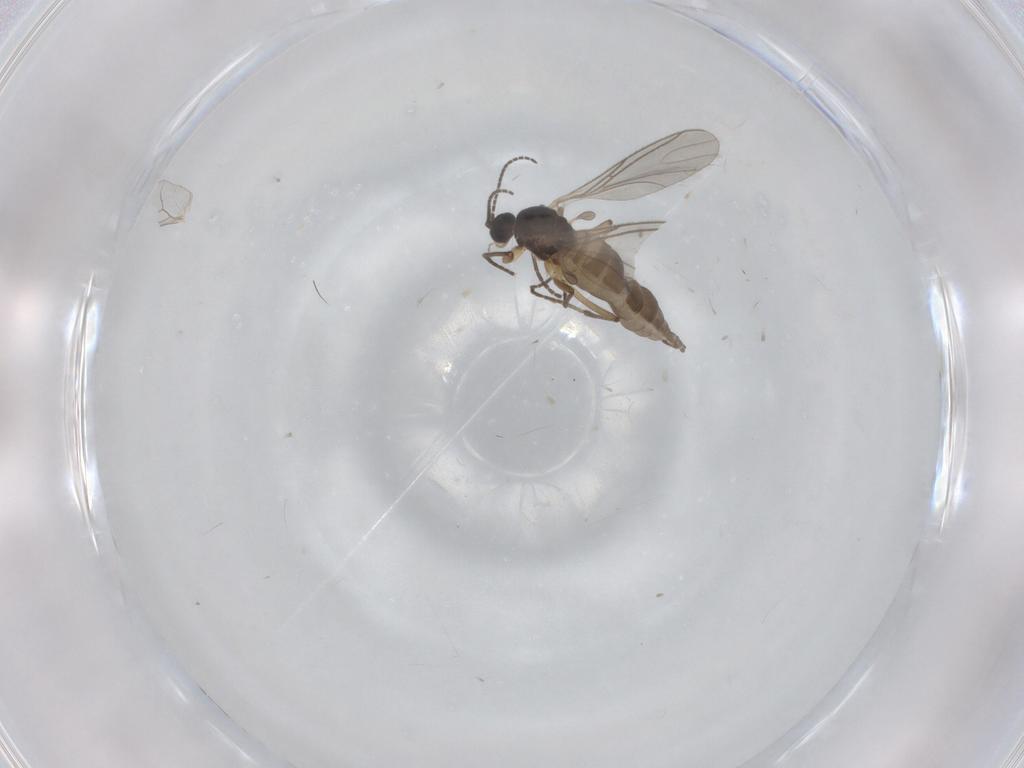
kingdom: Animalia
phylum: Arthropoda
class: Insecta
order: Diptera
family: Sciaridae
